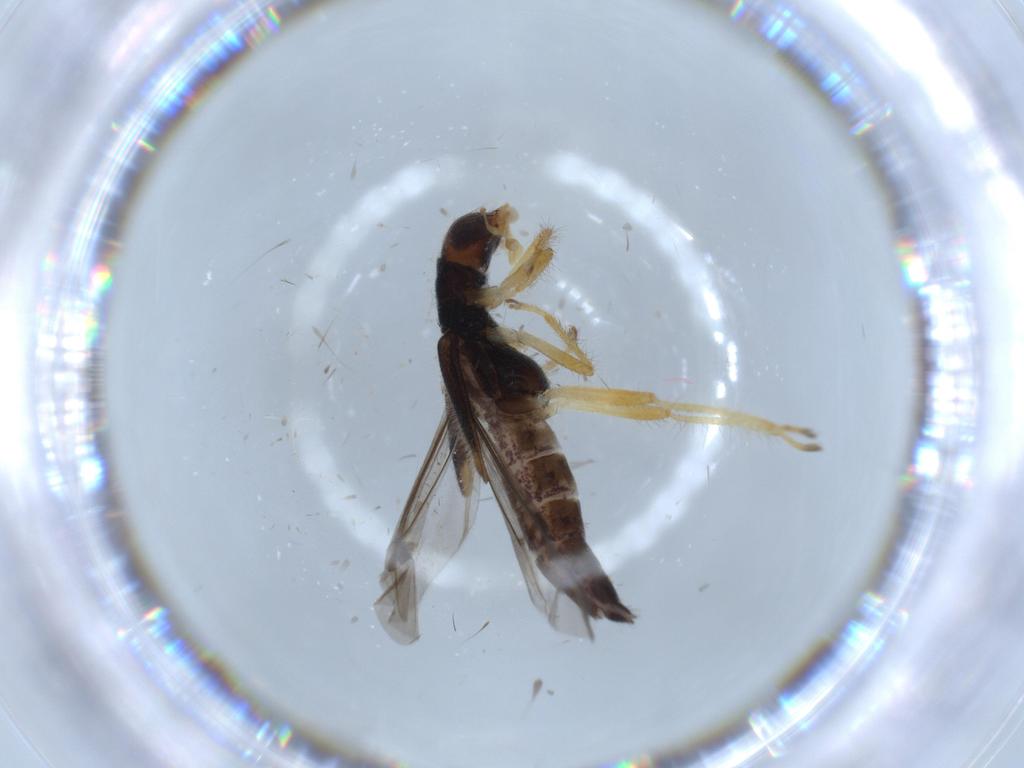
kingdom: Animalia
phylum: Arthropoda
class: Insecta
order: Coleoptera
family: Cleridae
